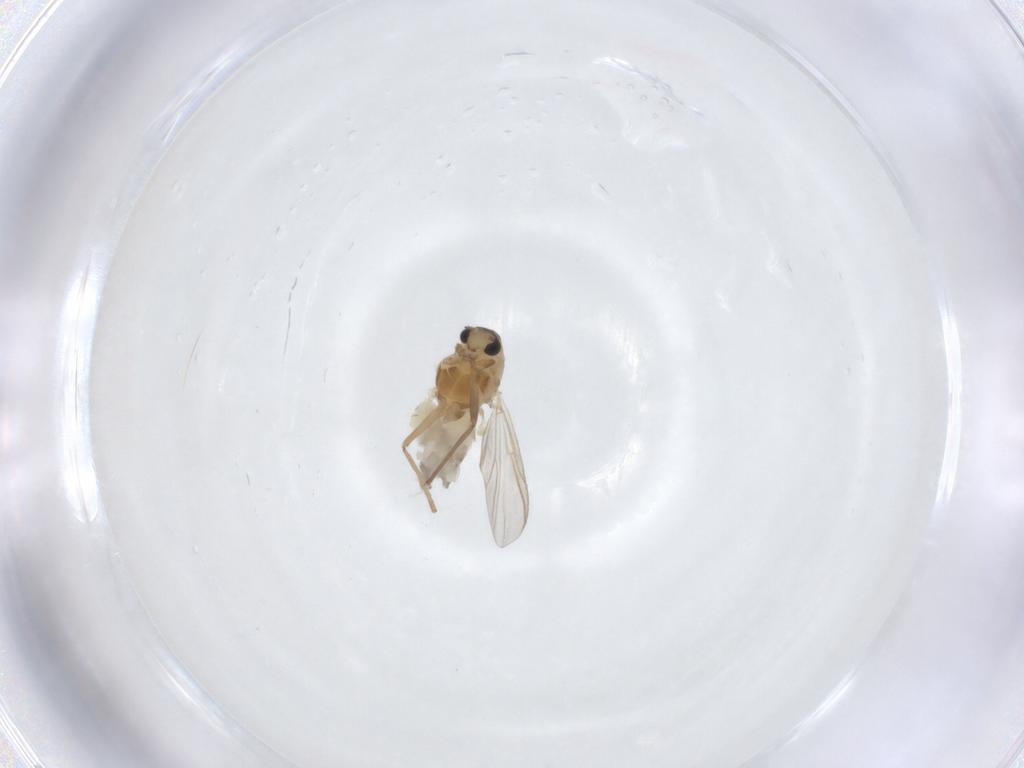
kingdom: Animalia
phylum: Arthropoda
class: Insecta
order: Diptera
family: Chironomidae
